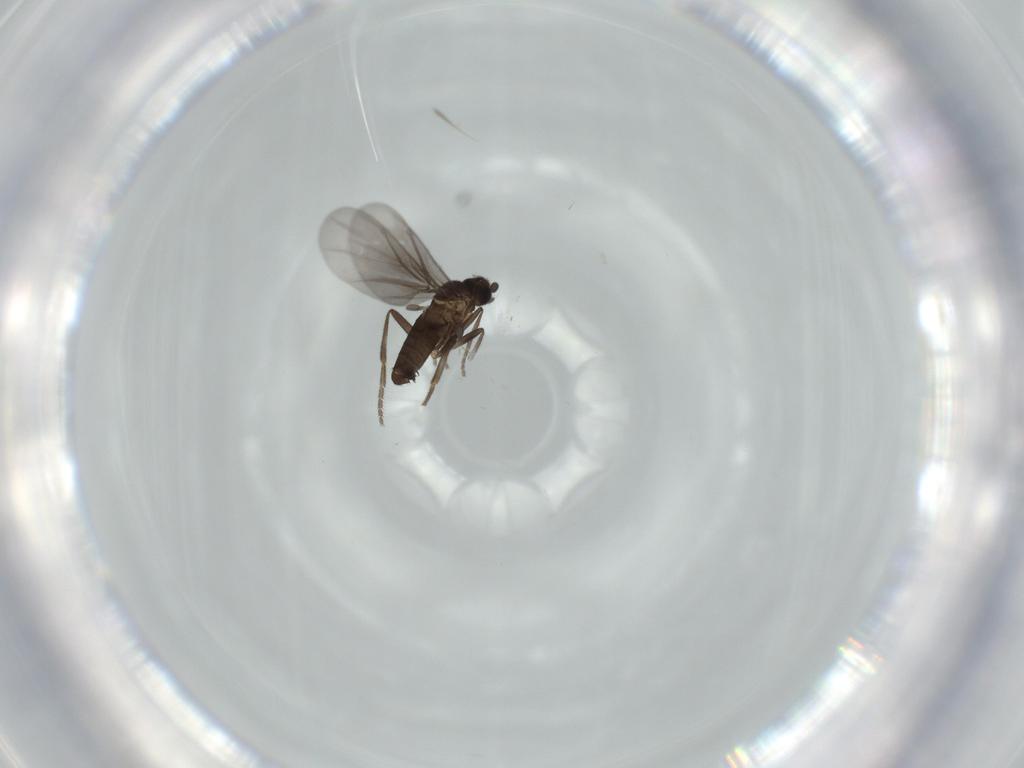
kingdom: Animalia
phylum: Arthropoda
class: Insecta
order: Diptera
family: Phoridae
